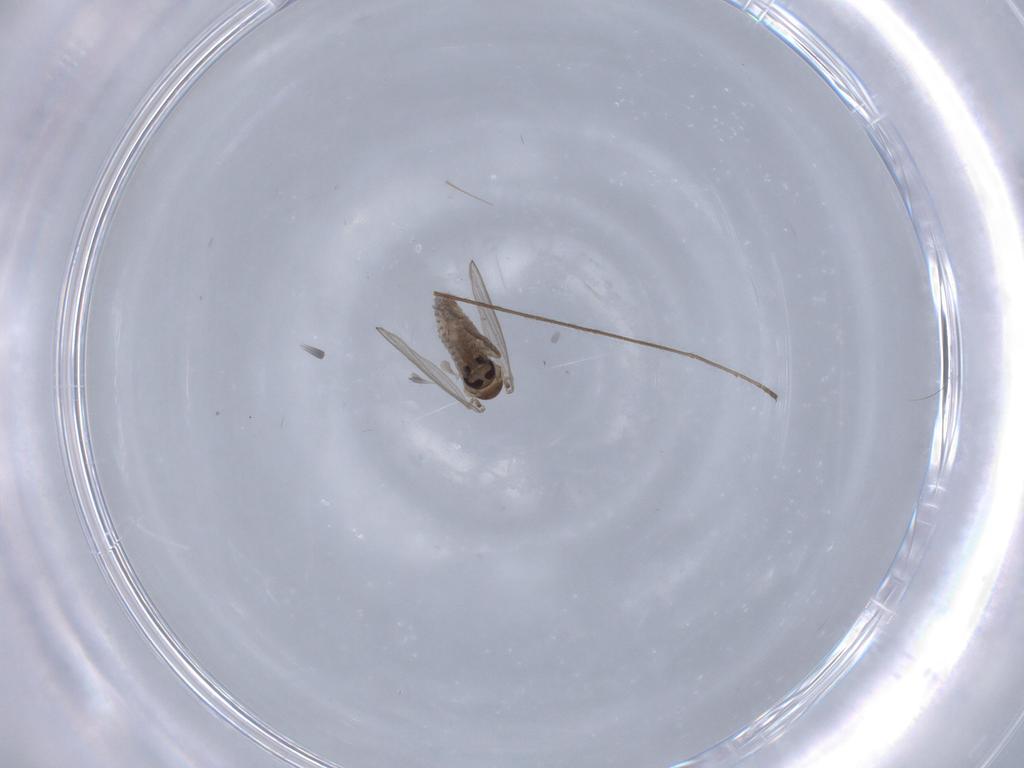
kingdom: Animalia
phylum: Arthropoda
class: Insecta
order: Diptera
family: Psychodidae
